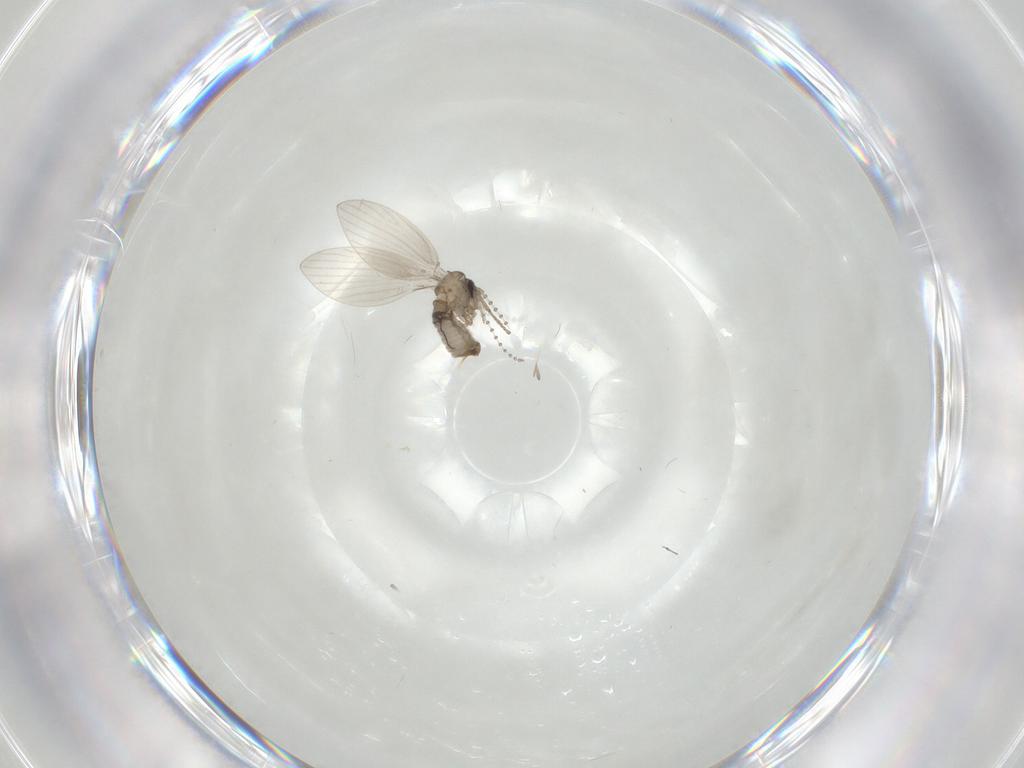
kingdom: Animalia
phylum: Arthropoda
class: Insecta
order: Diptera
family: Psychodidae
